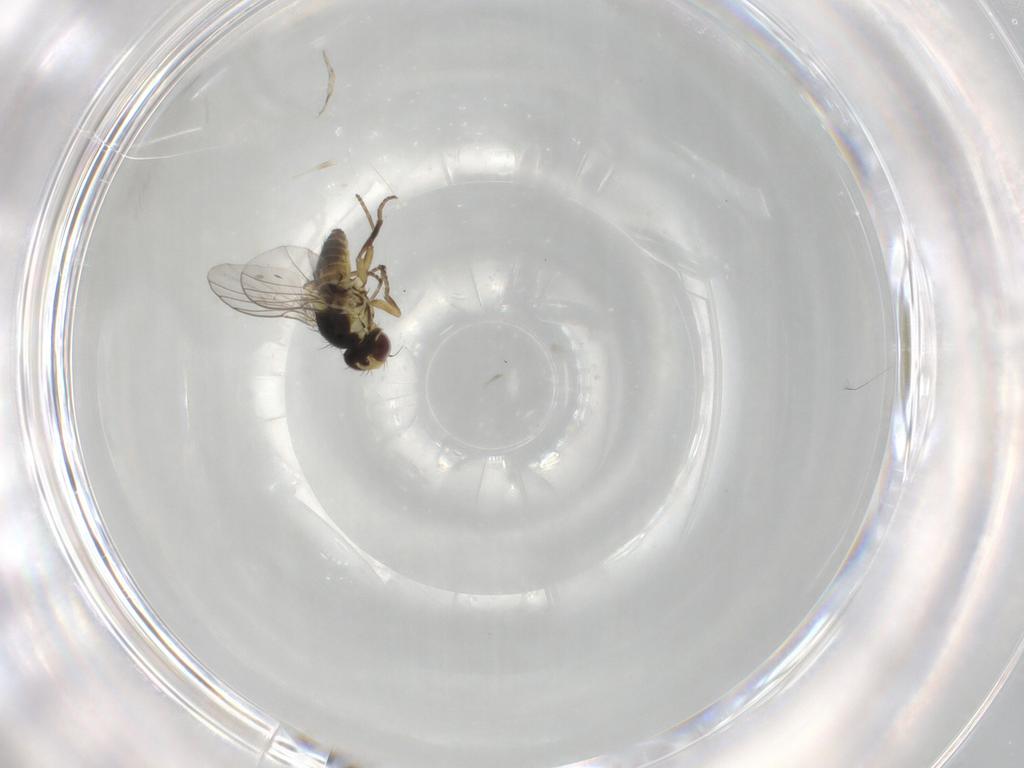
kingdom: Animalia
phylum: Arthropoda
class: Insecta
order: Diptera
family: Agromyzidae
